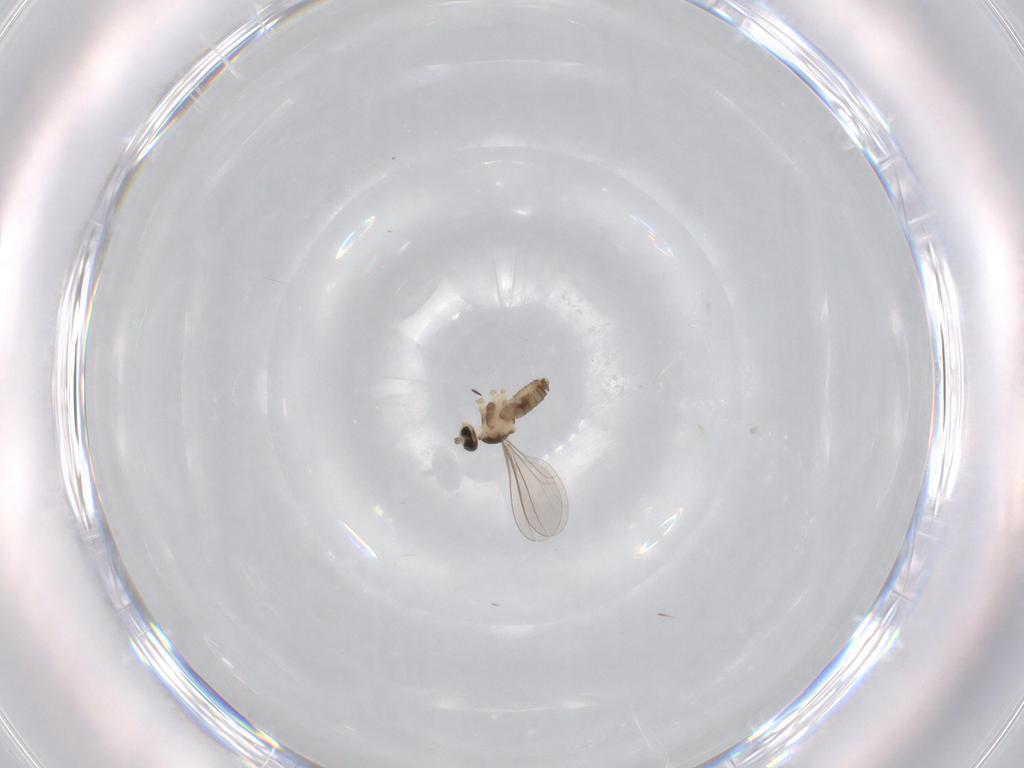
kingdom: Animalia
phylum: Arthropoda
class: Insecta
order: Diptera
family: Cecidomyiidae
